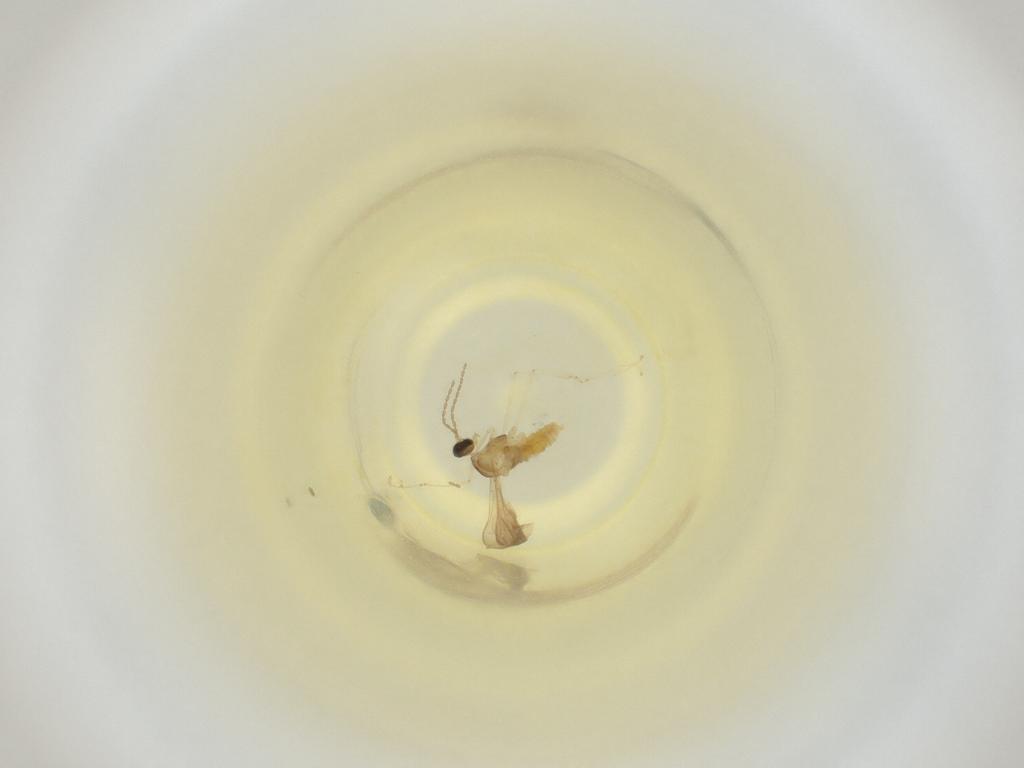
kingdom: Animalia
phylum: Arthropoda
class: Insecta
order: Diptera
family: Cecidomyiidae
